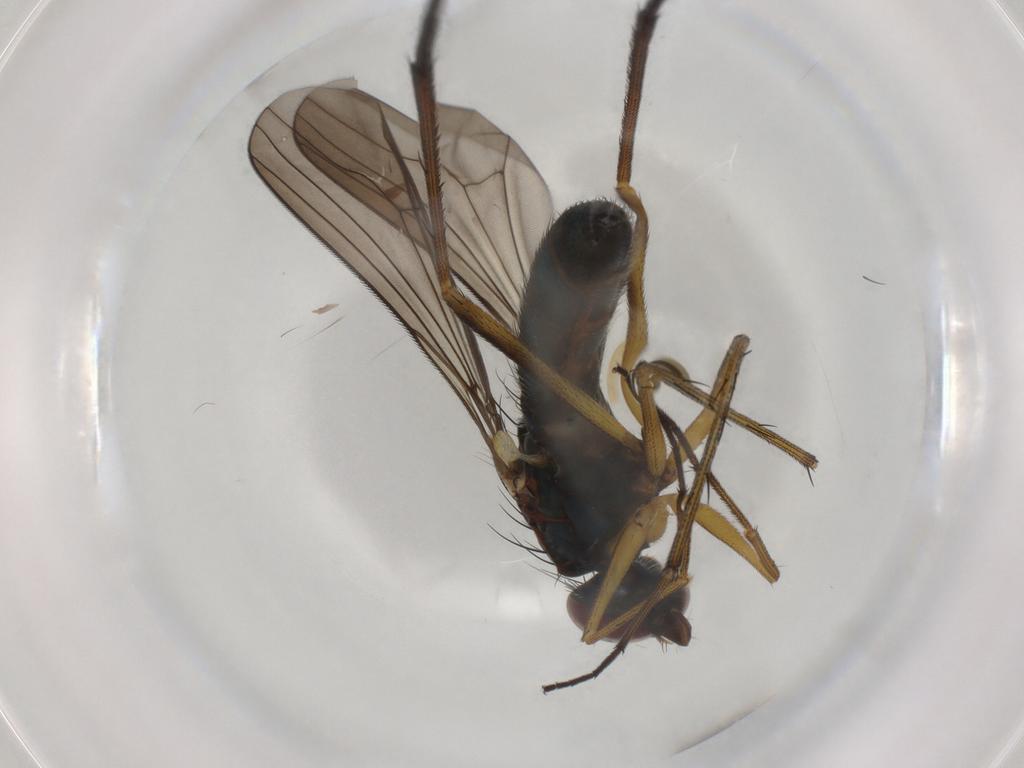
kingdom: Animalia
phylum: Arthropoda
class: Insecta
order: Diptera
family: Dolichopodidae
